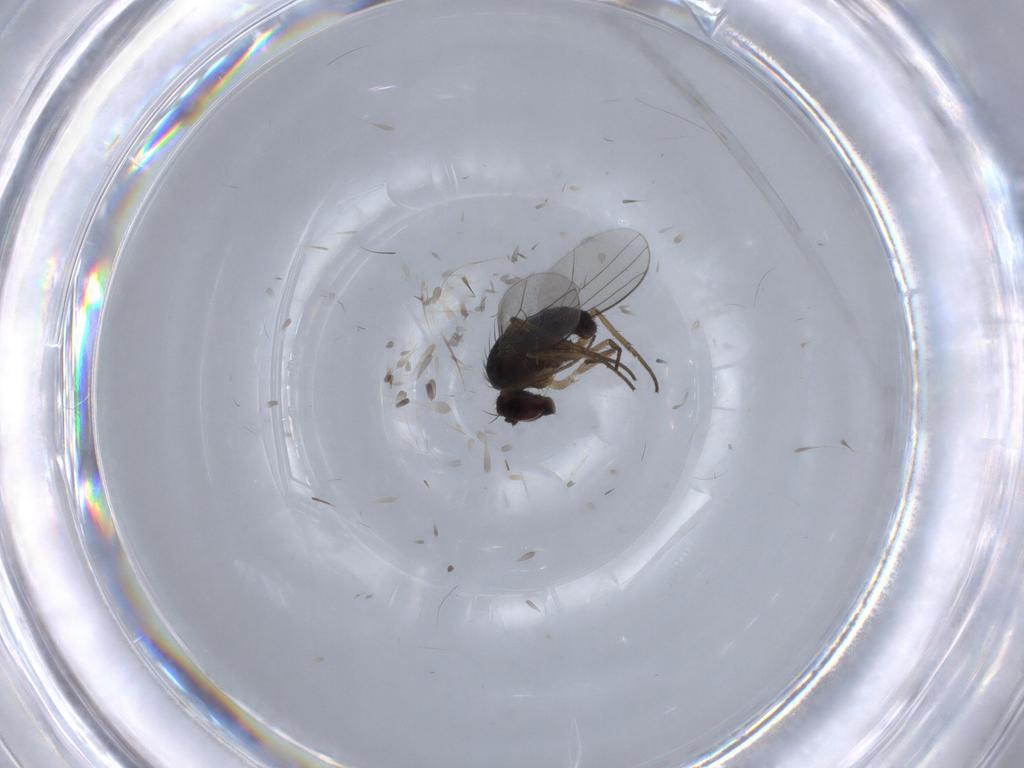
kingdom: Animalia
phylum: Arthropoda
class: Insecta
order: Diptera
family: Dolichopodidae
